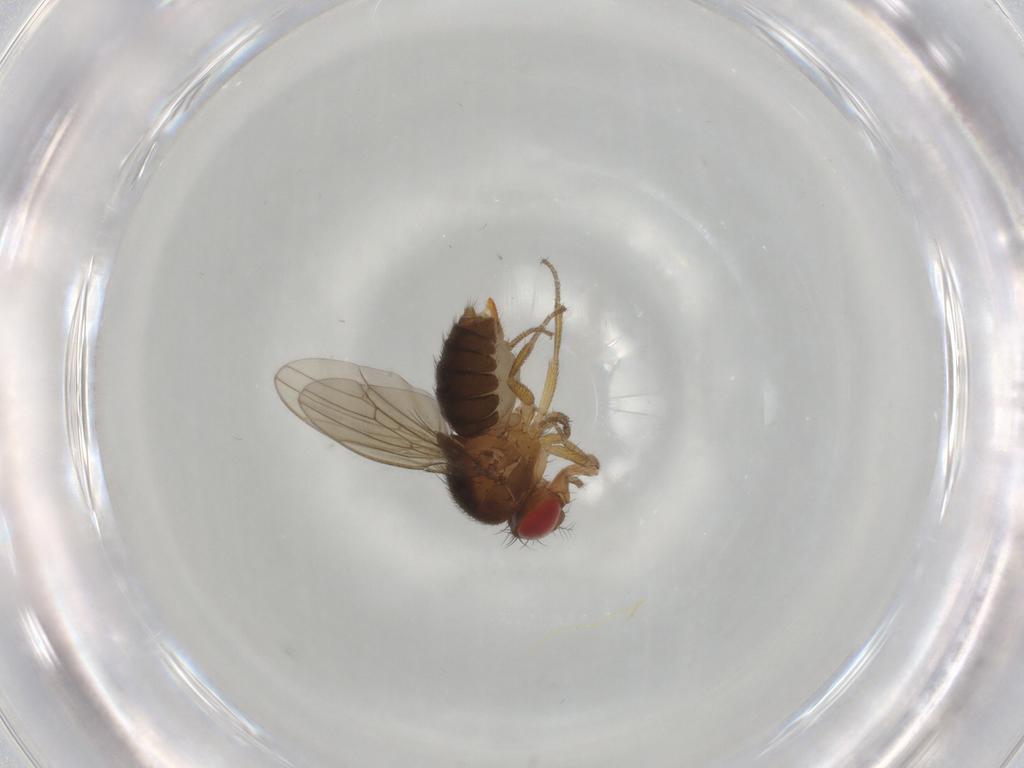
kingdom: Animalia
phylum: Arthropoda
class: Insecta
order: Diptera
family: Drosophilidae
